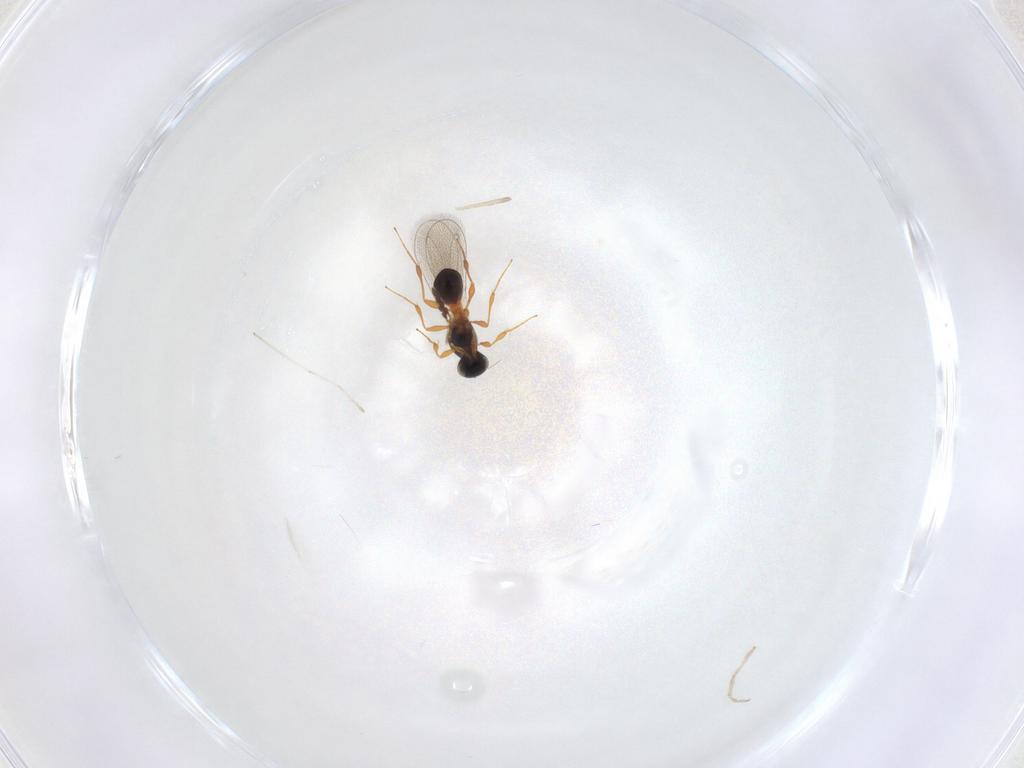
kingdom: Animalia
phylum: Arthropoda
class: Insecta
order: Hymenoptera
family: Platygastridae
